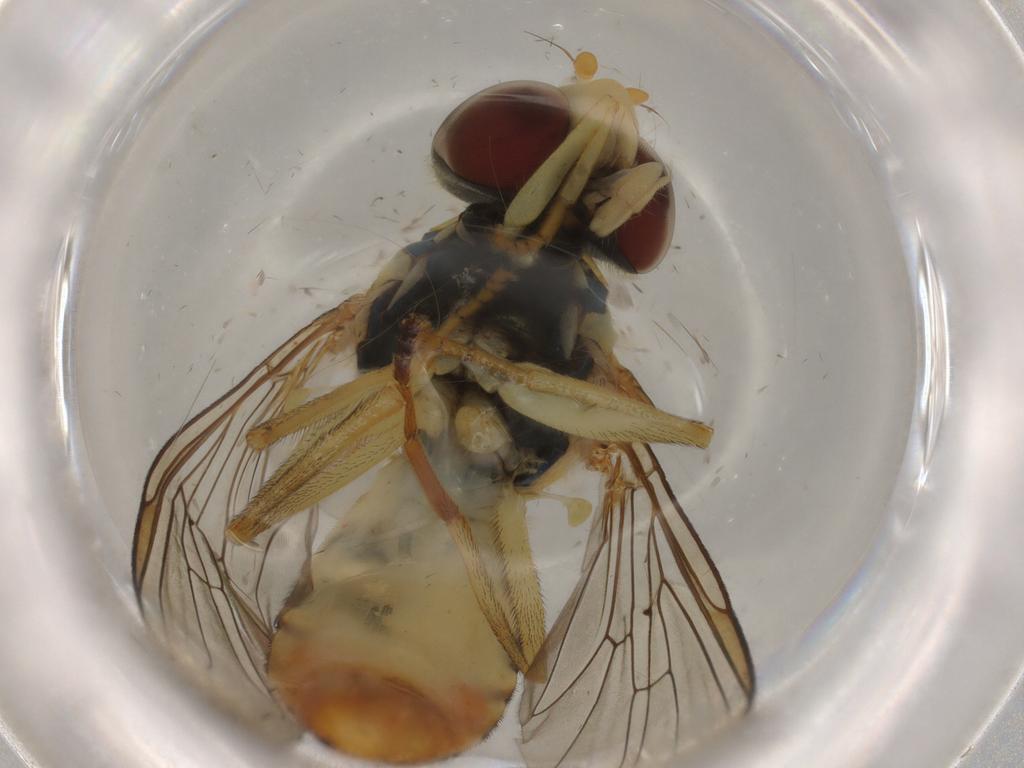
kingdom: Animalia
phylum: Arthropoda
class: Insecta
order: Diptera
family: Syrphidae
